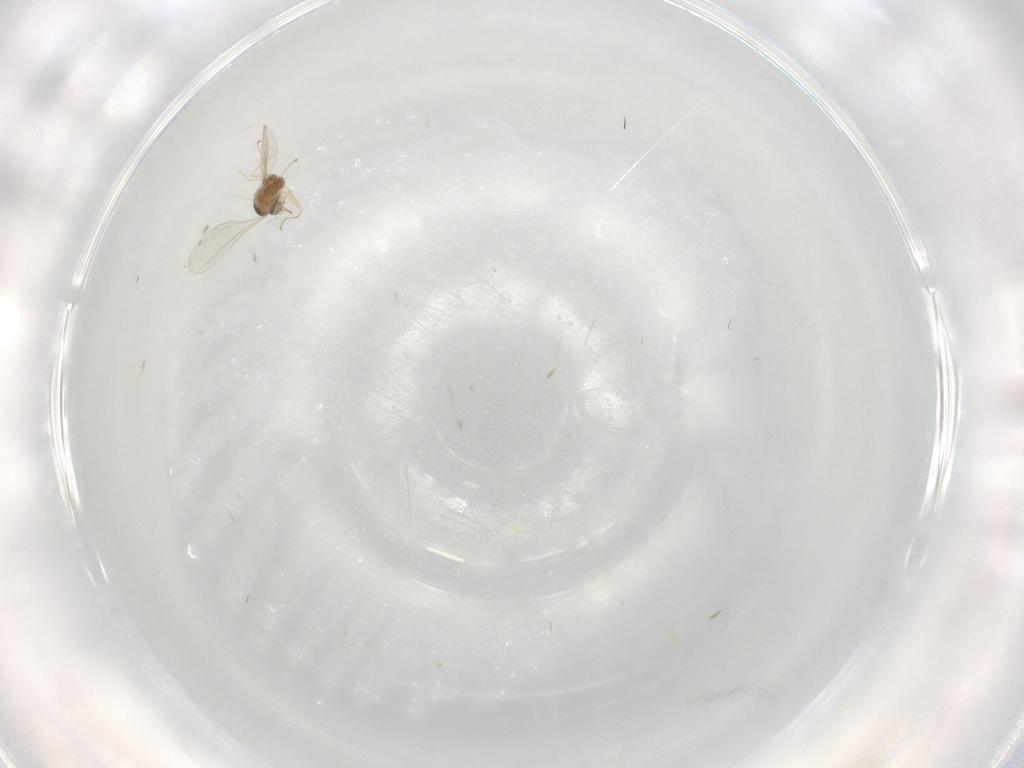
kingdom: Animalia
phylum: Arthropoda
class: Insecta
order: Diptera
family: Cecidomyiidae
